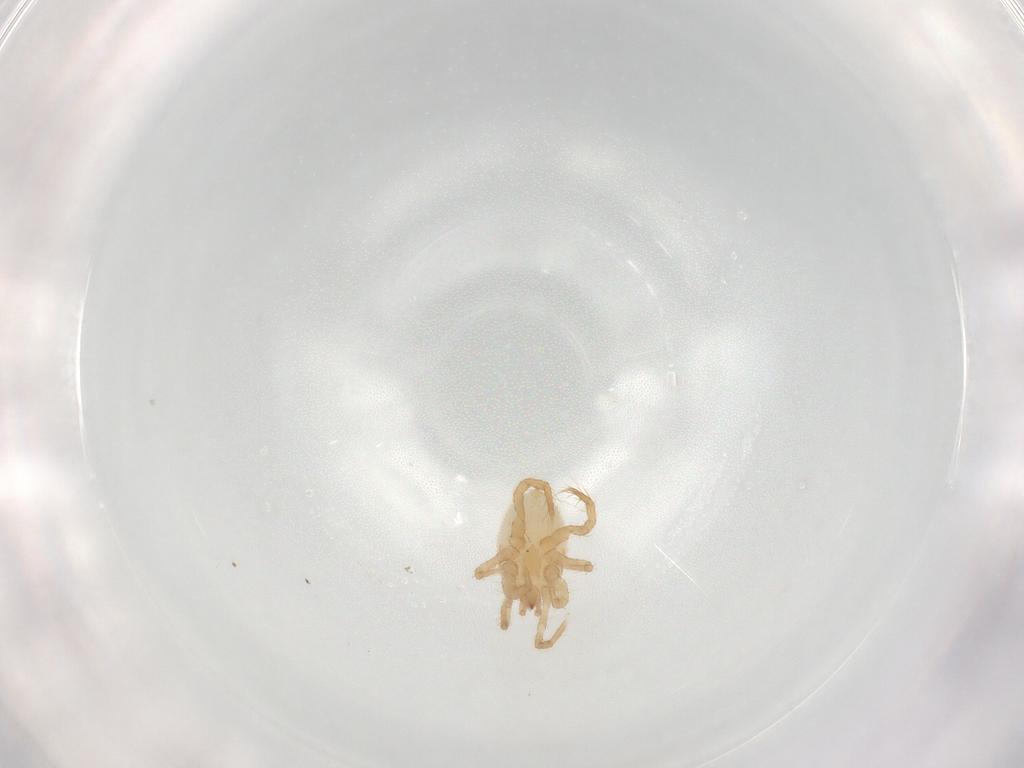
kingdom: Animalia
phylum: Arthropoda
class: Arachnida
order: Mesostigmata
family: Parasitidae
